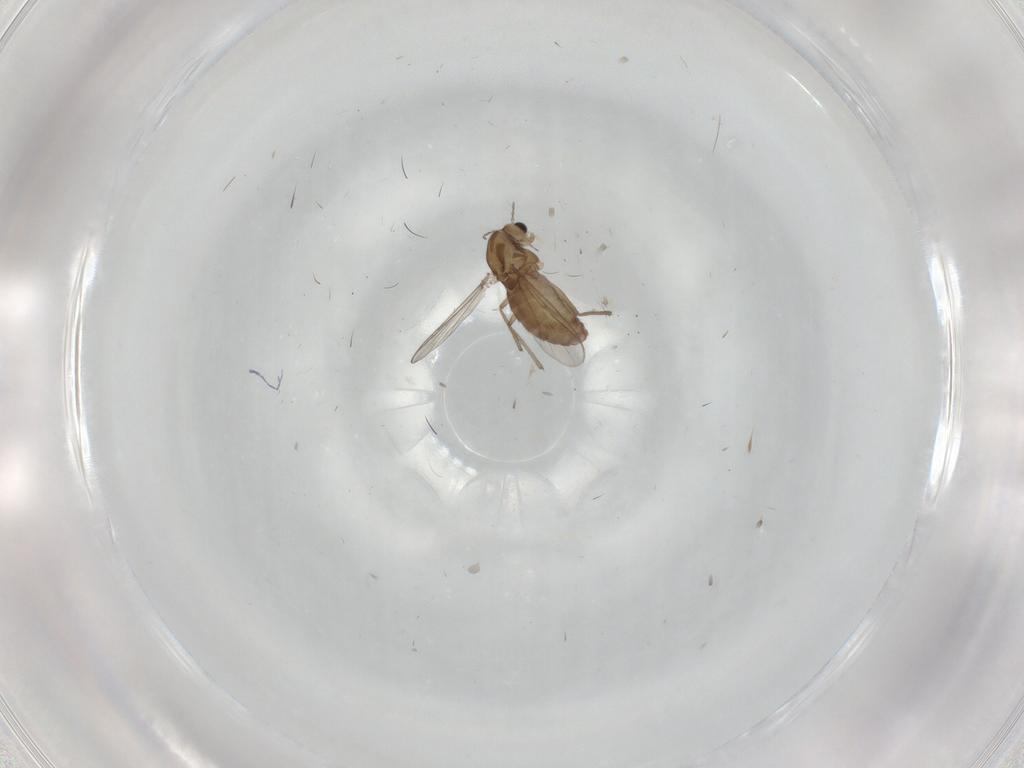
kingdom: Animalia
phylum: Arthropoda
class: Insecta
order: Diptera
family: Chironomidae
